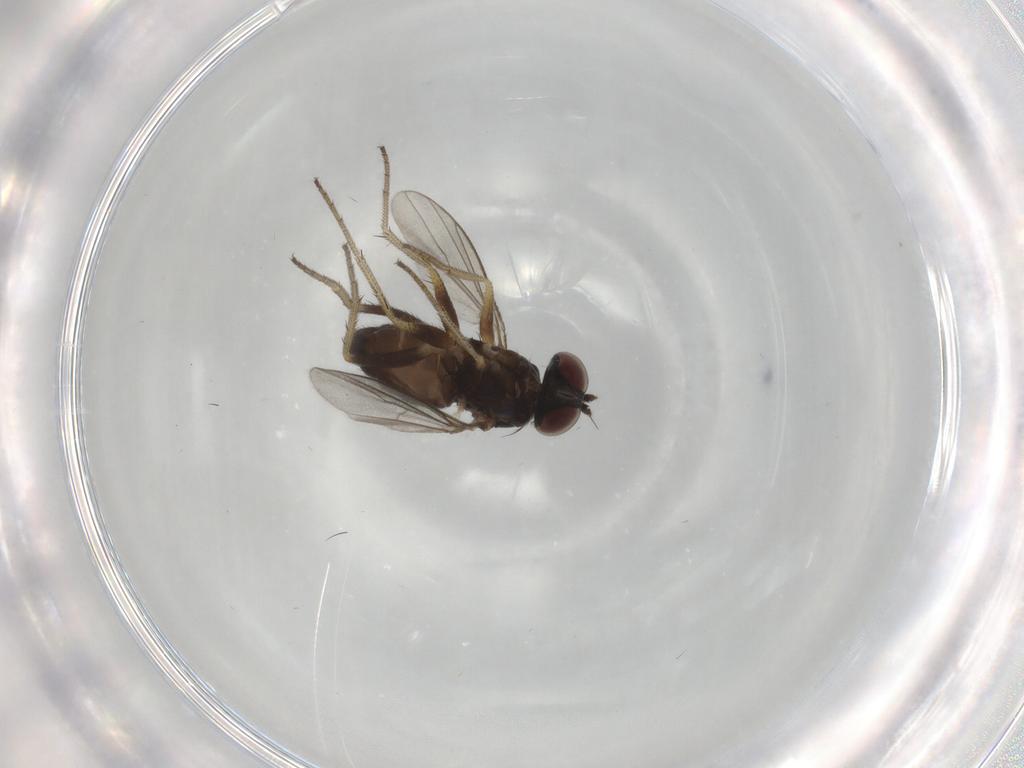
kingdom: Animalia
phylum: Arthropoda
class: Insecta
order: Diptera
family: Dolichopodidae
